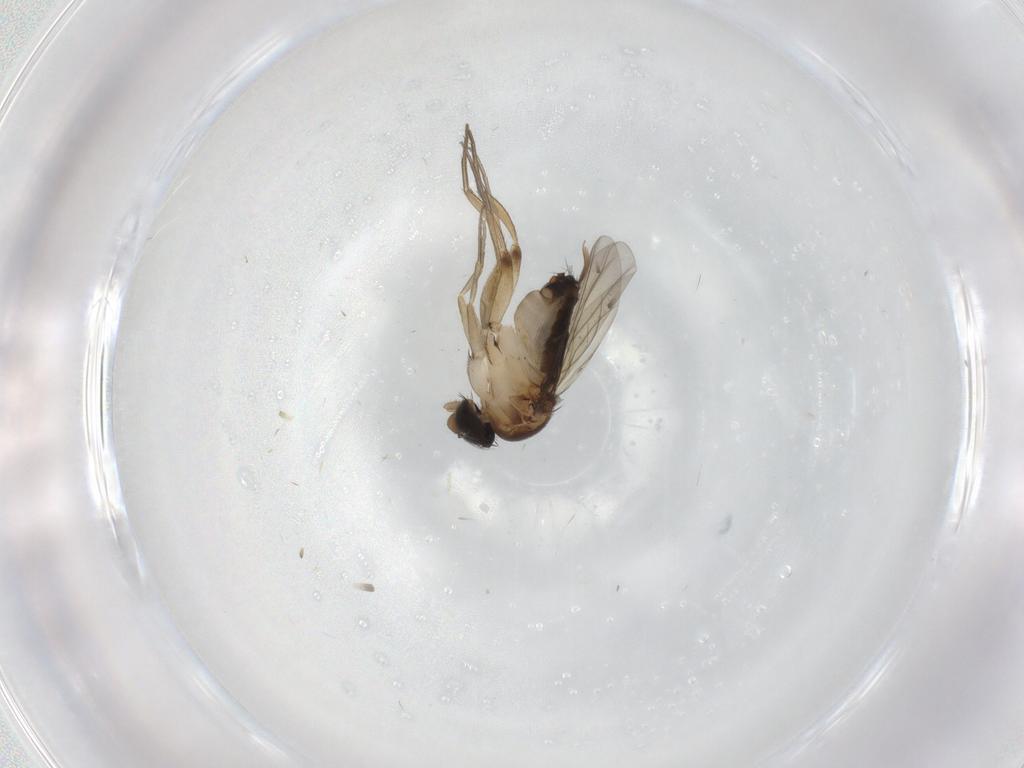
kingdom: Animalia
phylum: Arthropoda
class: Insecta
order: Diptera
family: Phoridae
